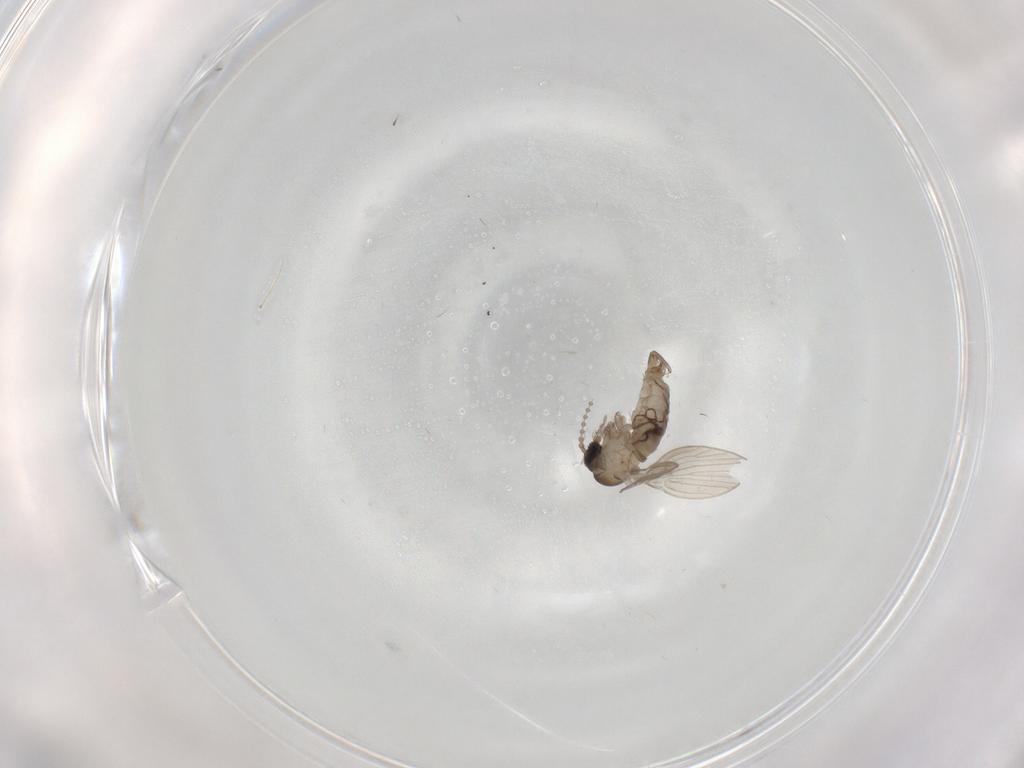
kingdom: Animalia
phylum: Arthropoda
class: Insecta
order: Diptera
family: Psychodidae
